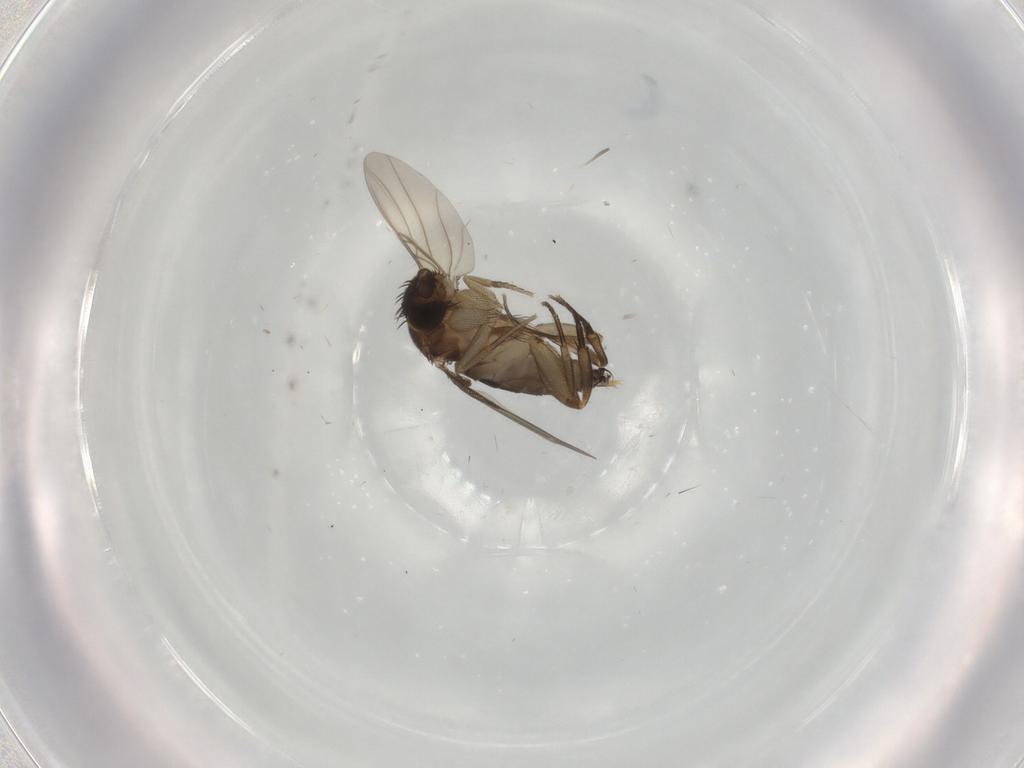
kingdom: Animalia
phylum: Arthropoda
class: Insecta
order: Diptera
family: Phoridae
